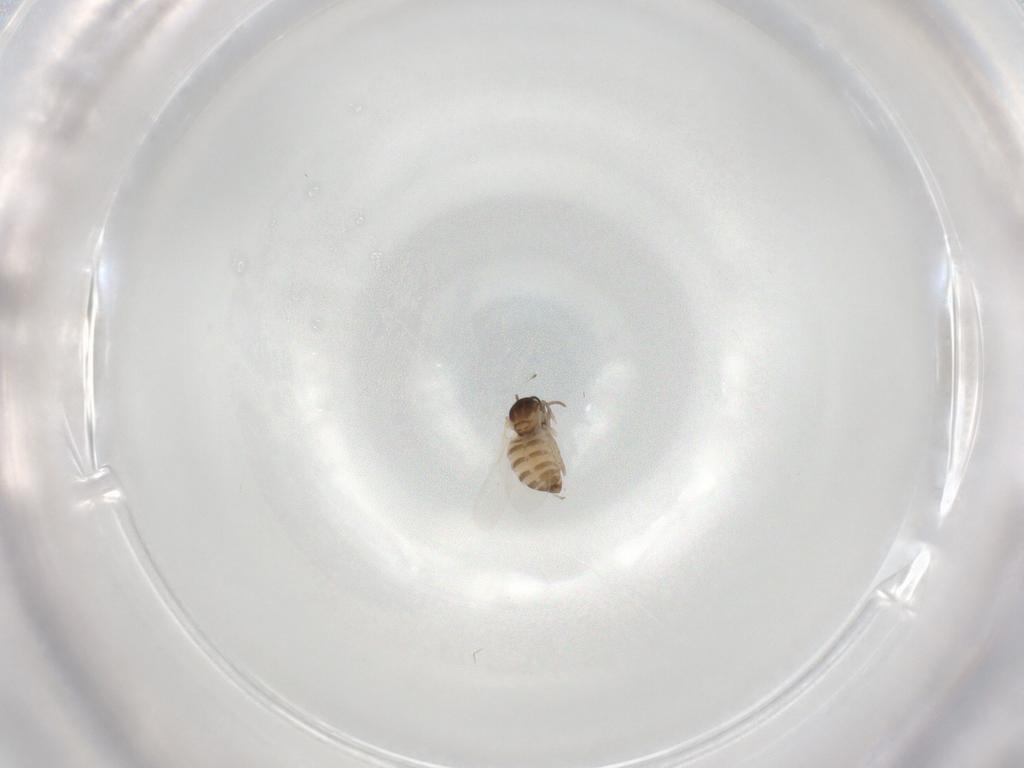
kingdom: Animalia
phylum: Arthropoda
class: Insecta
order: Diptera
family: Cecidomyiidae
